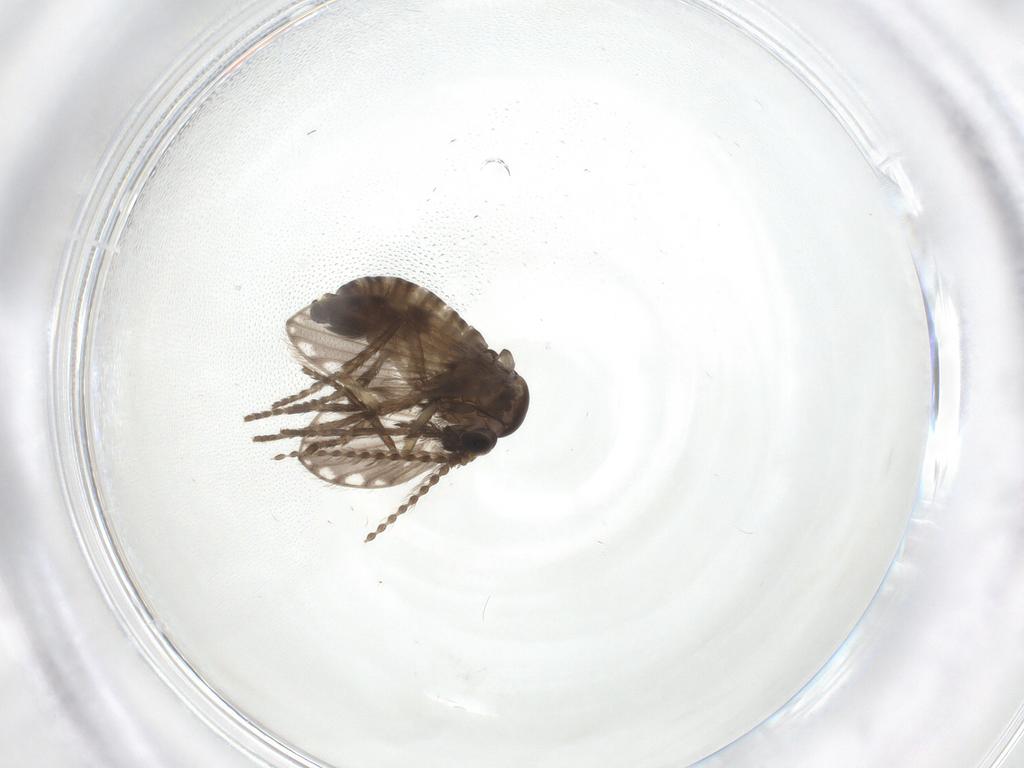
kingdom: Animalia
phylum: Arthropoda
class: Insecta
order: Diptera
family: Psychodidae
